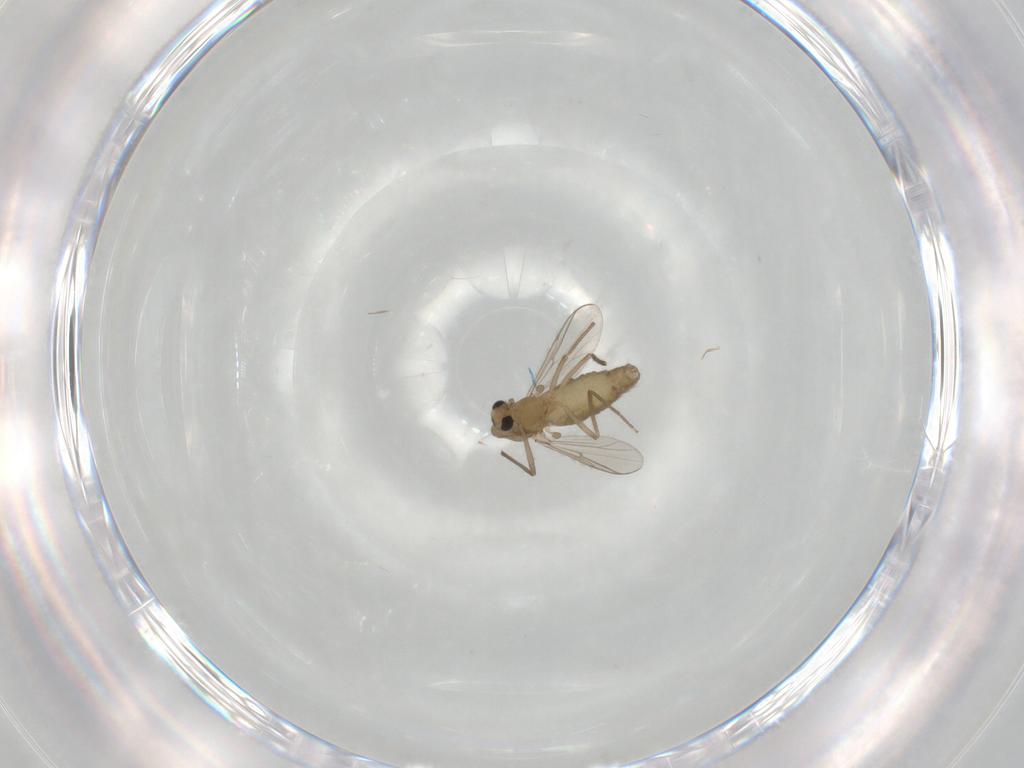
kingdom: Animalia
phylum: Arthropoda
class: Insecta
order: Diptera
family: Chironomidae
